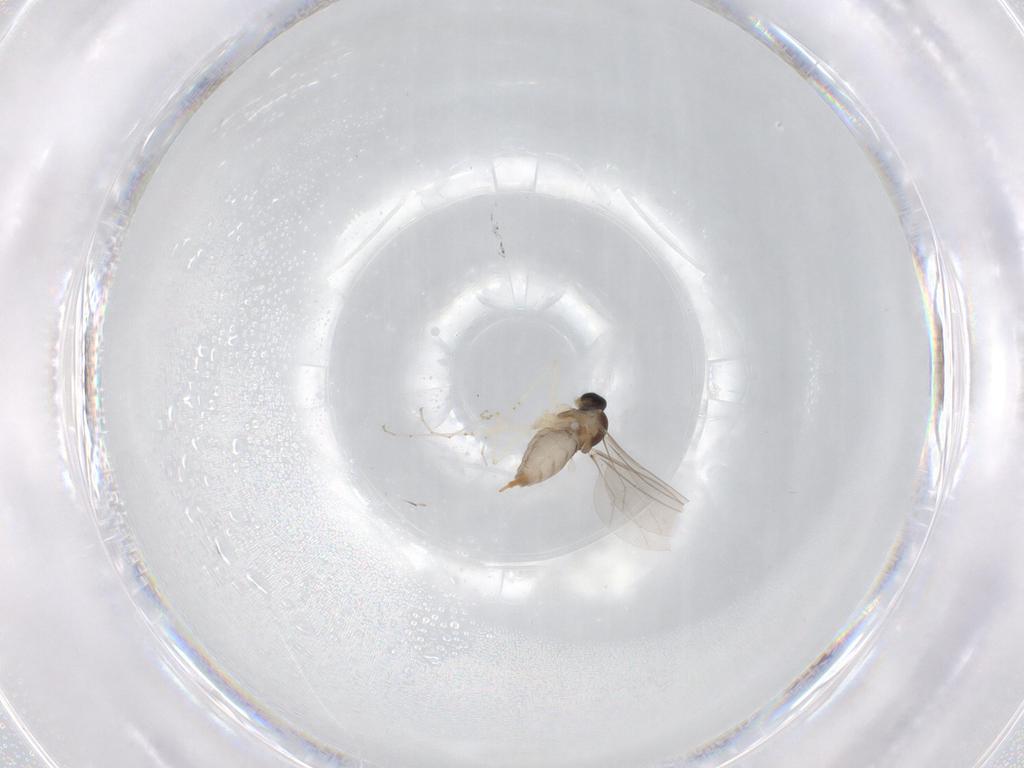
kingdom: Animalia
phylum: Arthropoda
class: Insecta
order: Diptera
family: Cecidomyiidae
